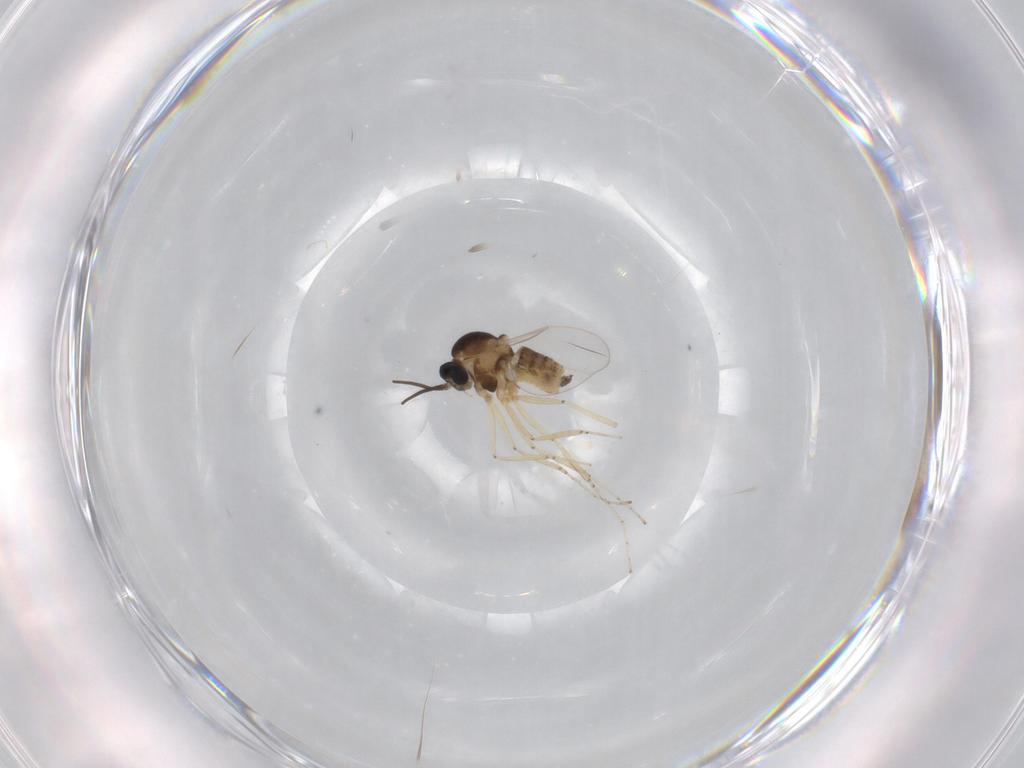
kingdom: Animalia
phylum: Arthropoda
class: Insecta
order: Diptera
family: Cecidomyiidae
